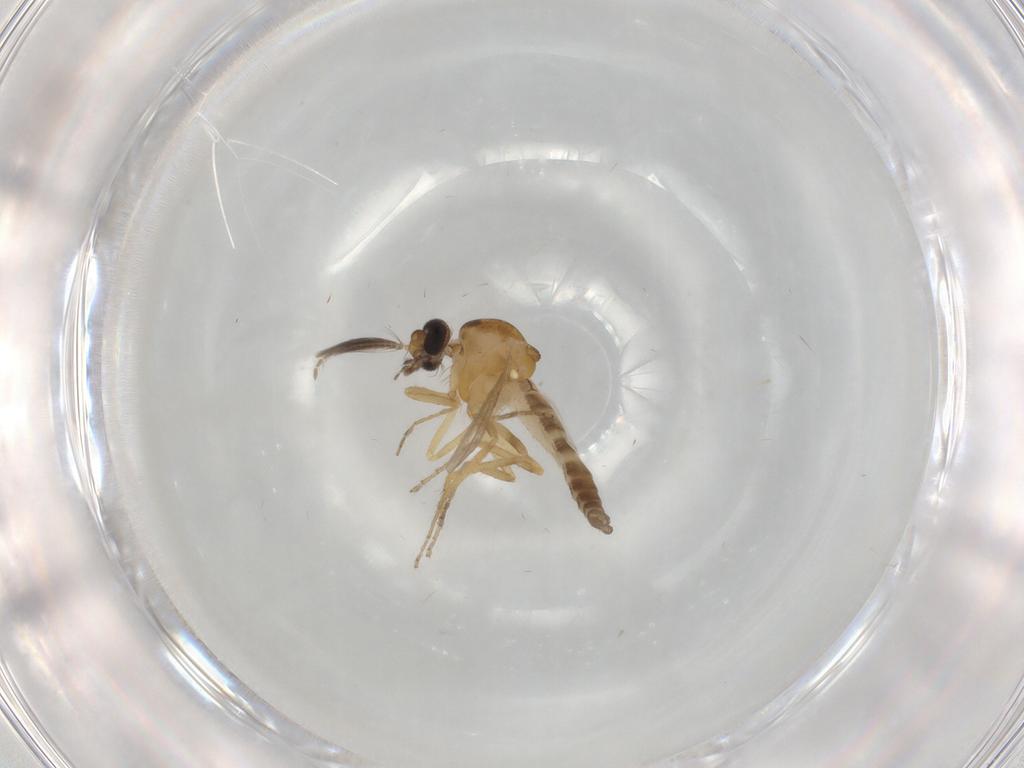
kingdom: Animalia
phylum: Arthropoda
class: Insecta
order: Diptera
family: Ceratopogonidae
